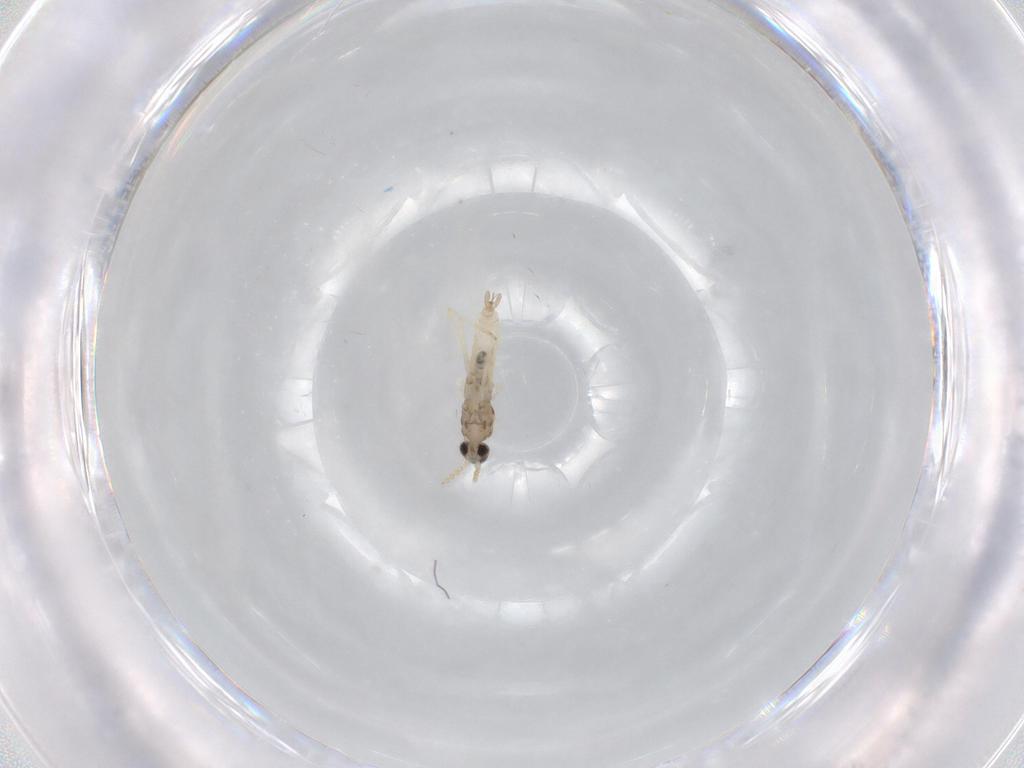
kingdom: Animalia
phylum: Arthropoda
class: Insecta
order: Diptera
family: Cecidomyiidae
